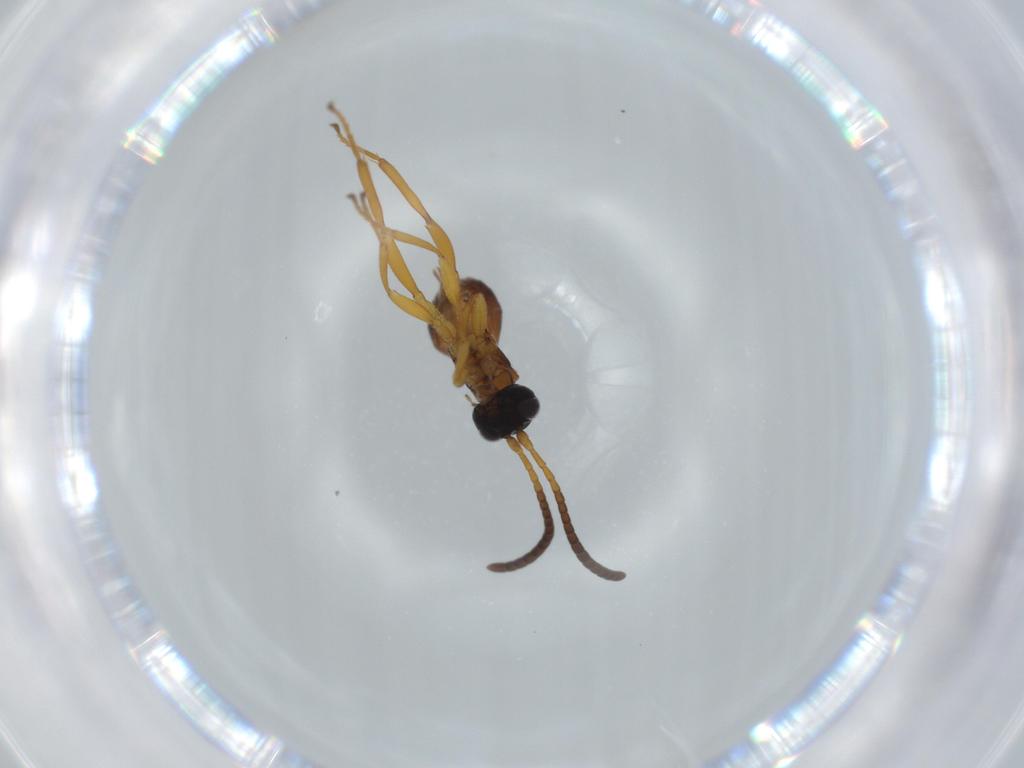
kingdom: Animalia
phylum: Arthropoda
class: Insecta
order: Hymenoptera
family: Ichneumonidae
